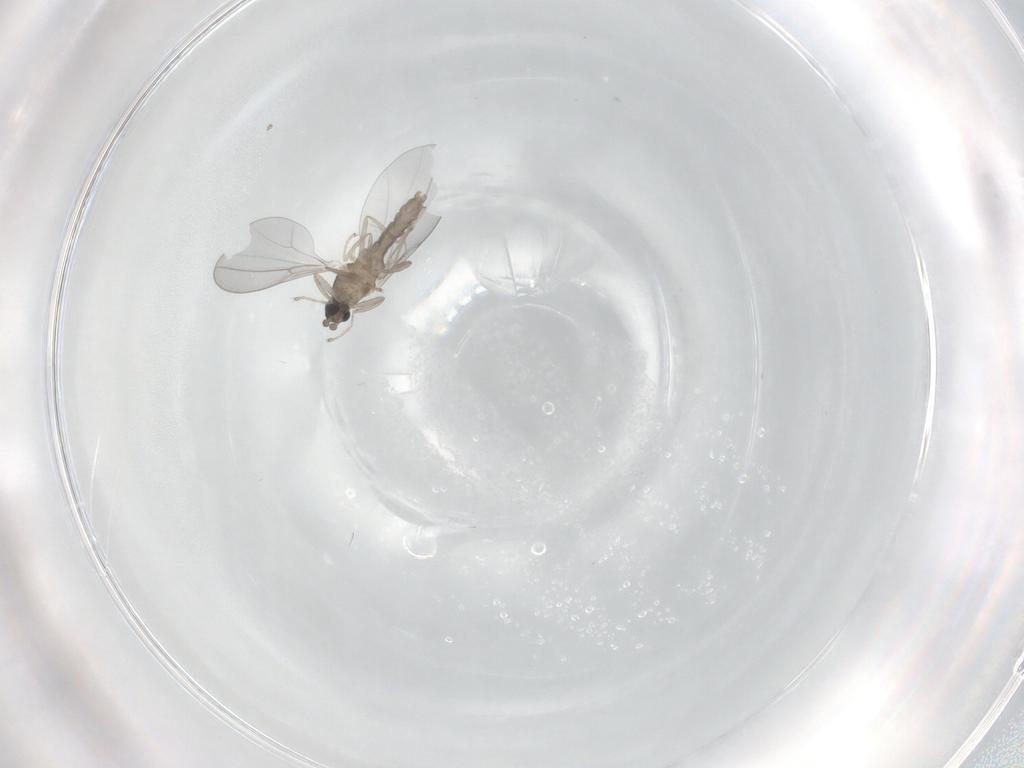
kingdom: Animalia
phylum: Arthropoda
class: Insecta
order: Diptera
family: Cecidomyiidae
